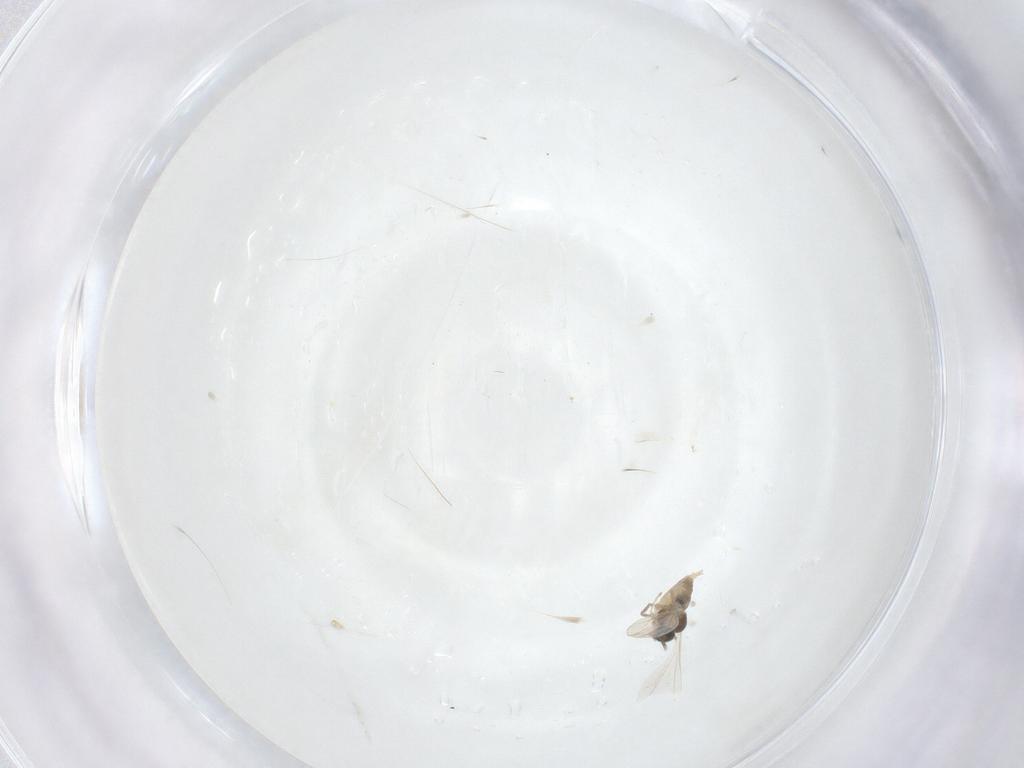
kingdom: Animalia
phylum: Arthropoda
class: Insecta
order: Diptera
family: Cecidomyiidae
